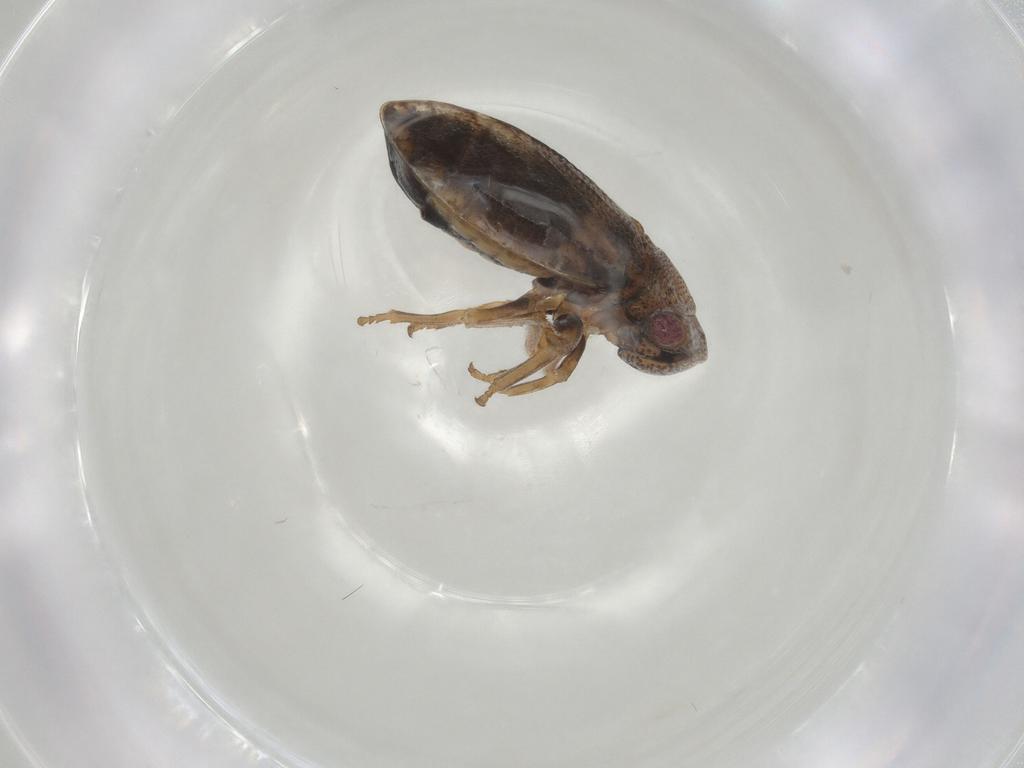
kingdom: Animalia
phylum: Arthropoda
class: Insecta
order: Hemiptera
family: Cicadellidae
